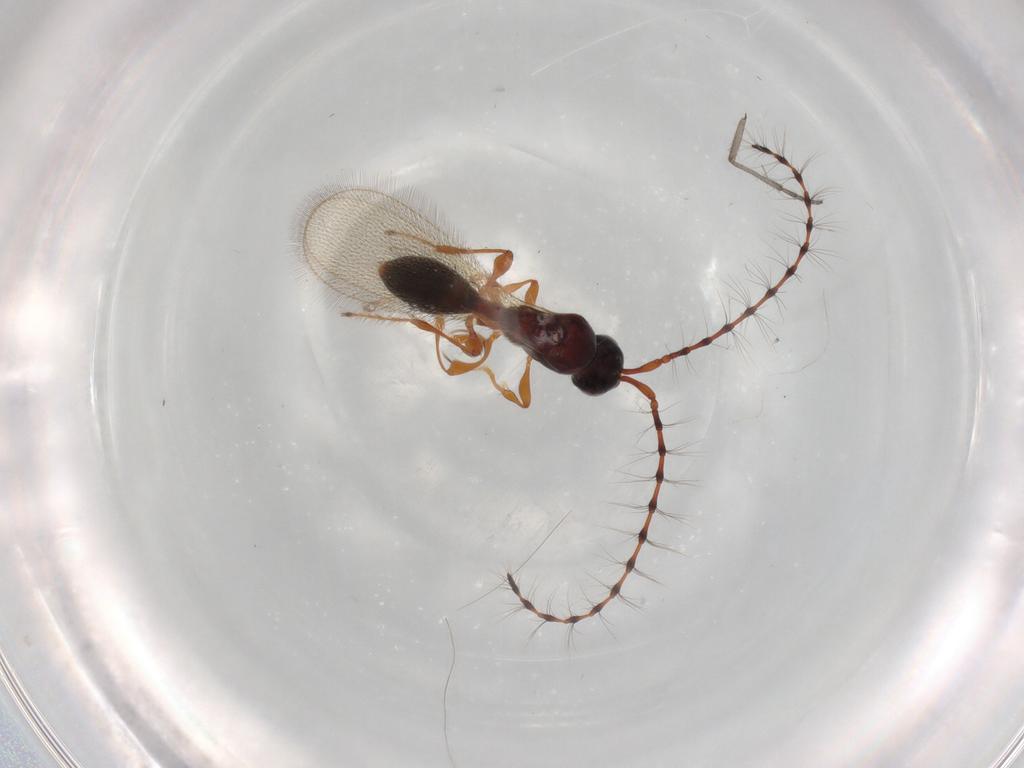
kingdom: Animalia
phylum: Arthropoda
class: Insecta
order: Hymenoptera
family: Diapriidae
